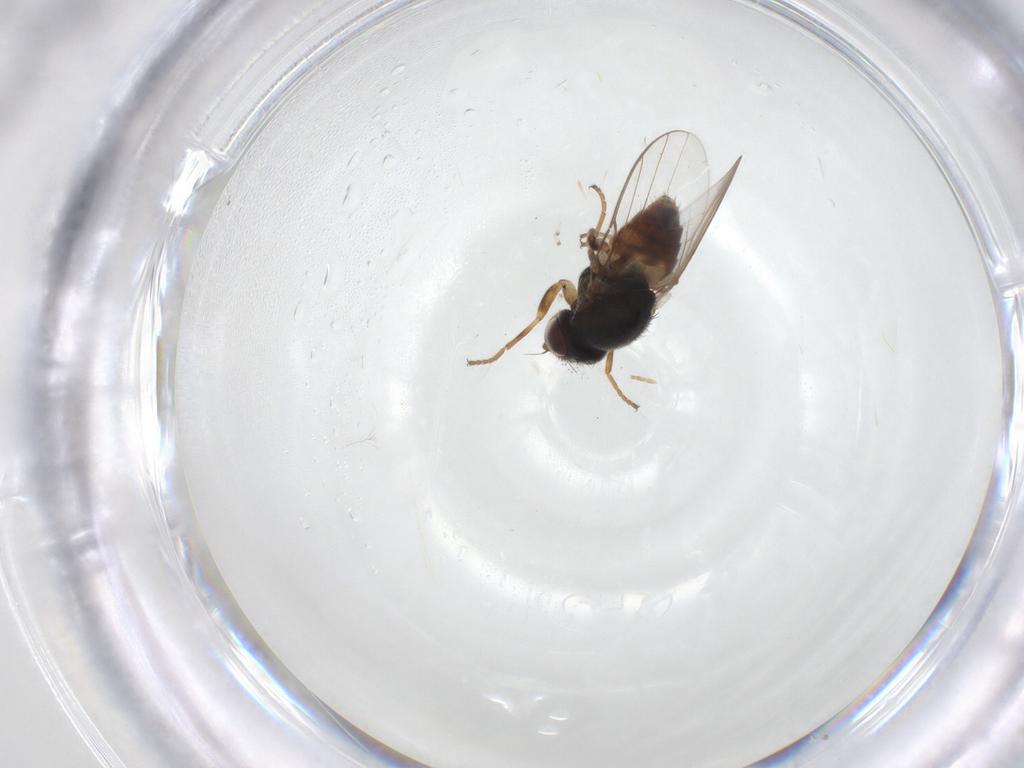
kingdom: Animalia
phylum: Arthropoda
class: Insecta
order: Diptera
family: Chloropidae
